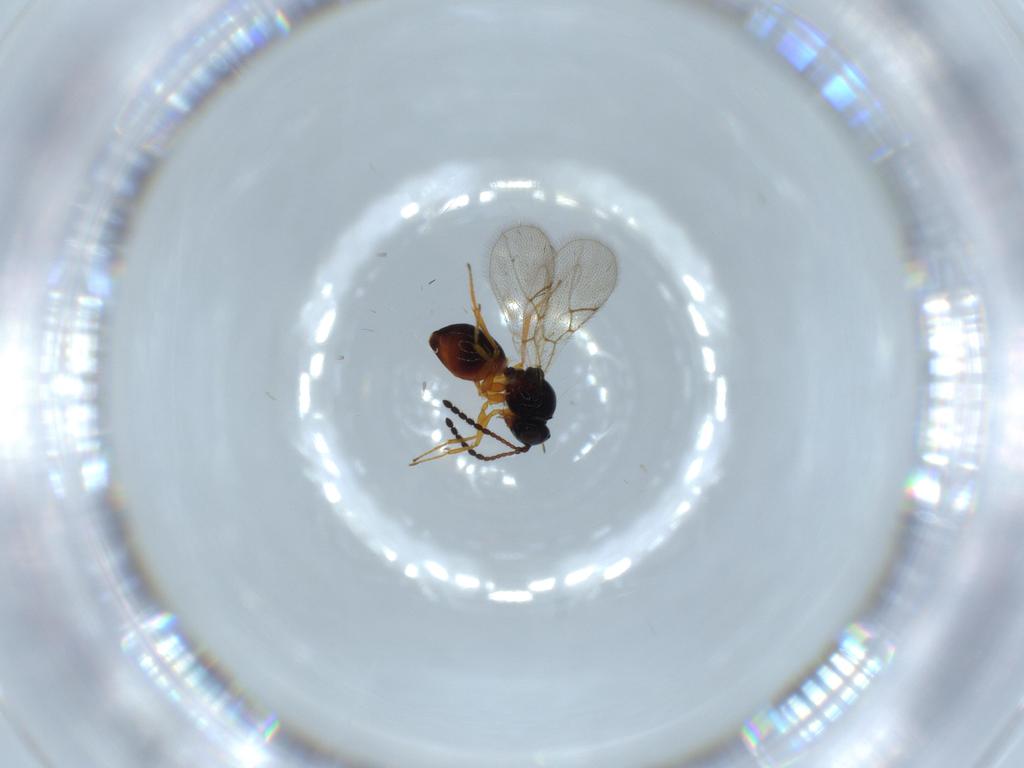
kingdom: Animalia
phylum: Arthropoda
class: Insecta
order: Hymenoptera
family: Figitidae
